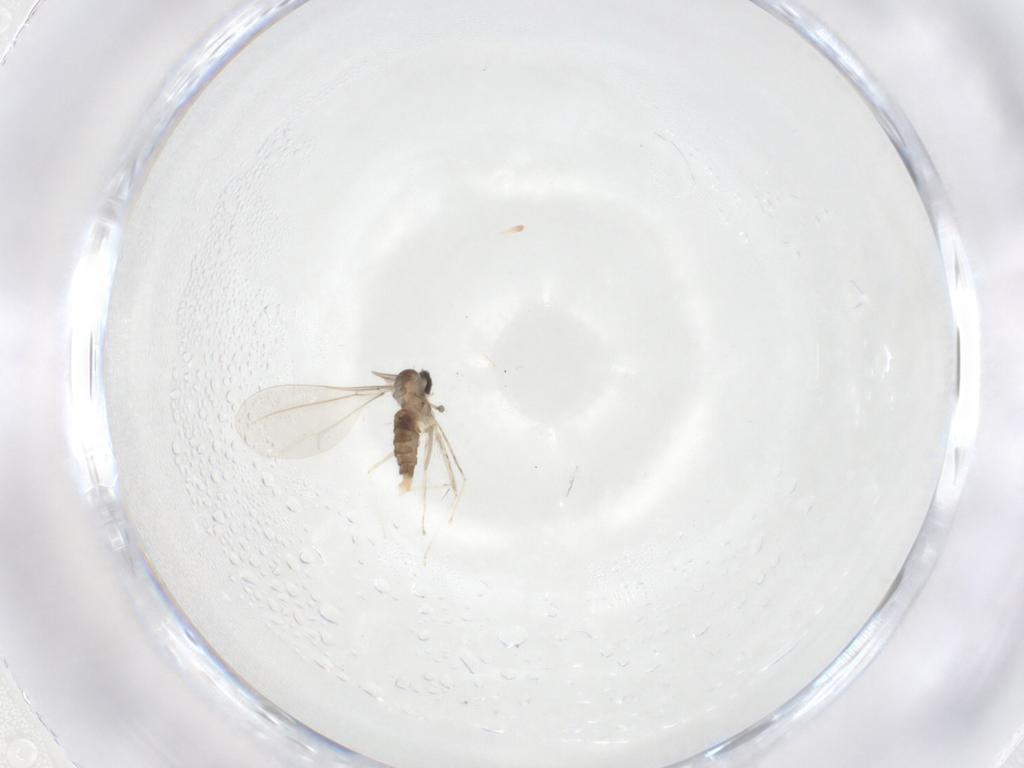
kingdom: Animalia
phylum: Arthropoda
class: Insecta
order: Diptera
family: Cecidomyiidae
